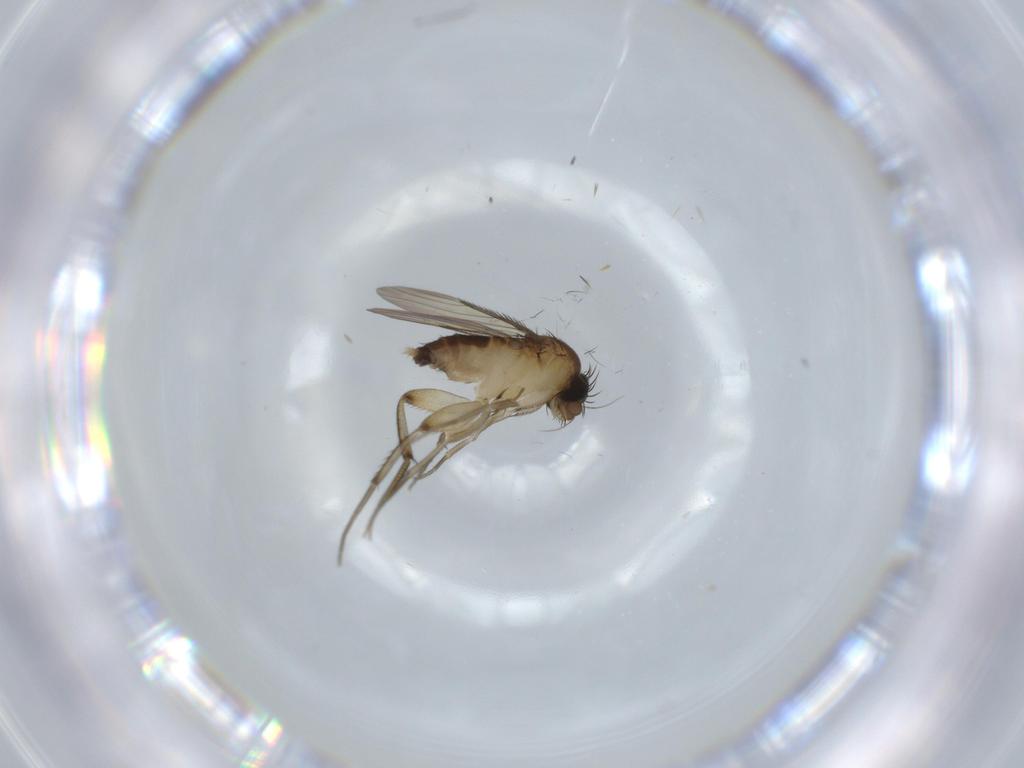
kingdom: Animalia
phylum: Arthropoda
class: Insecta
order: Diptera
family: Phoridae
